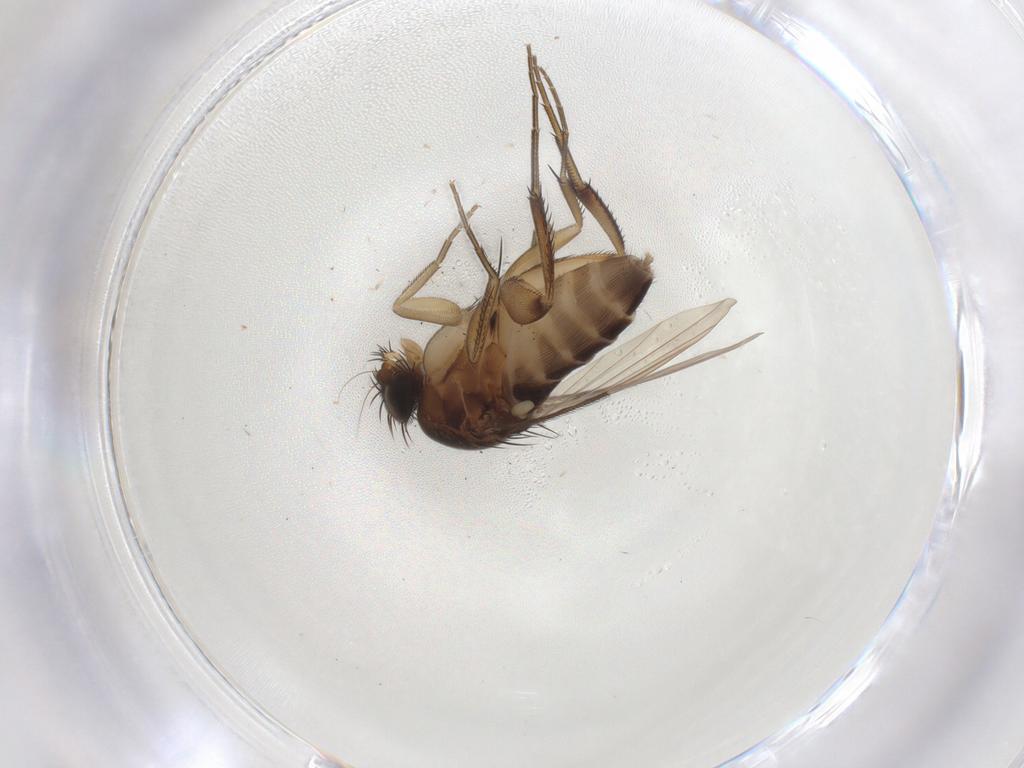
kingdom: Animalia
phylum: Arthropoda
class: Insecta
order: Diptera
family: Phoridae
